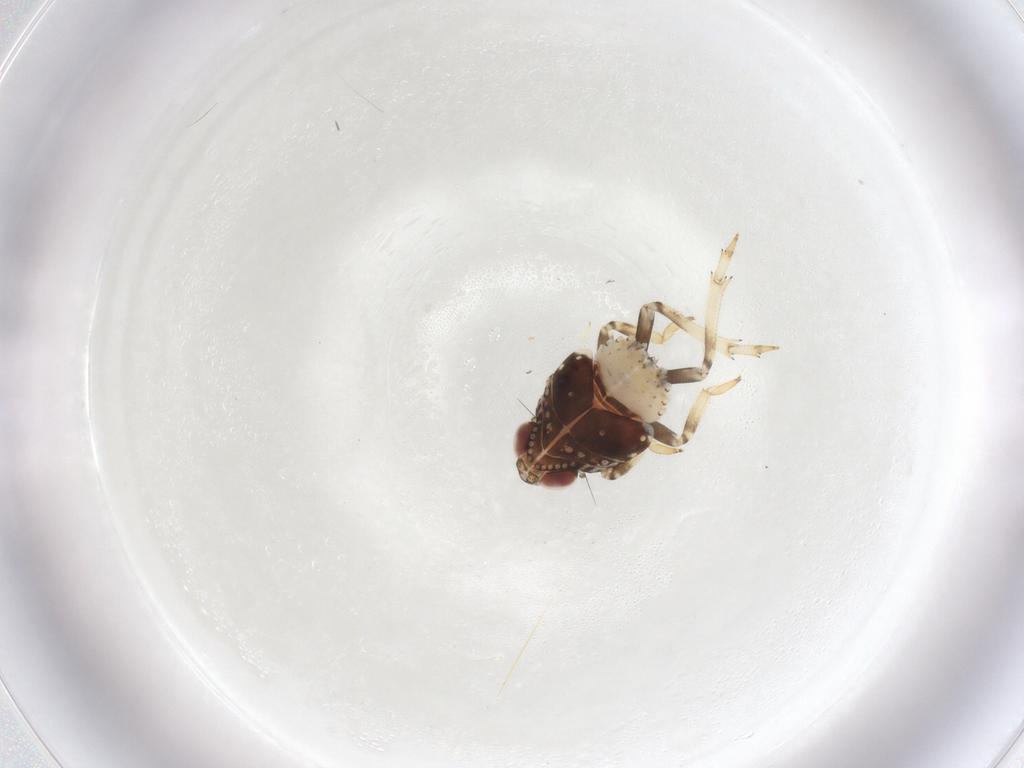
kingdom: Animalia
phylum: Arthropoda
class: Insecta
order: Hemiptera
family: Issidae
